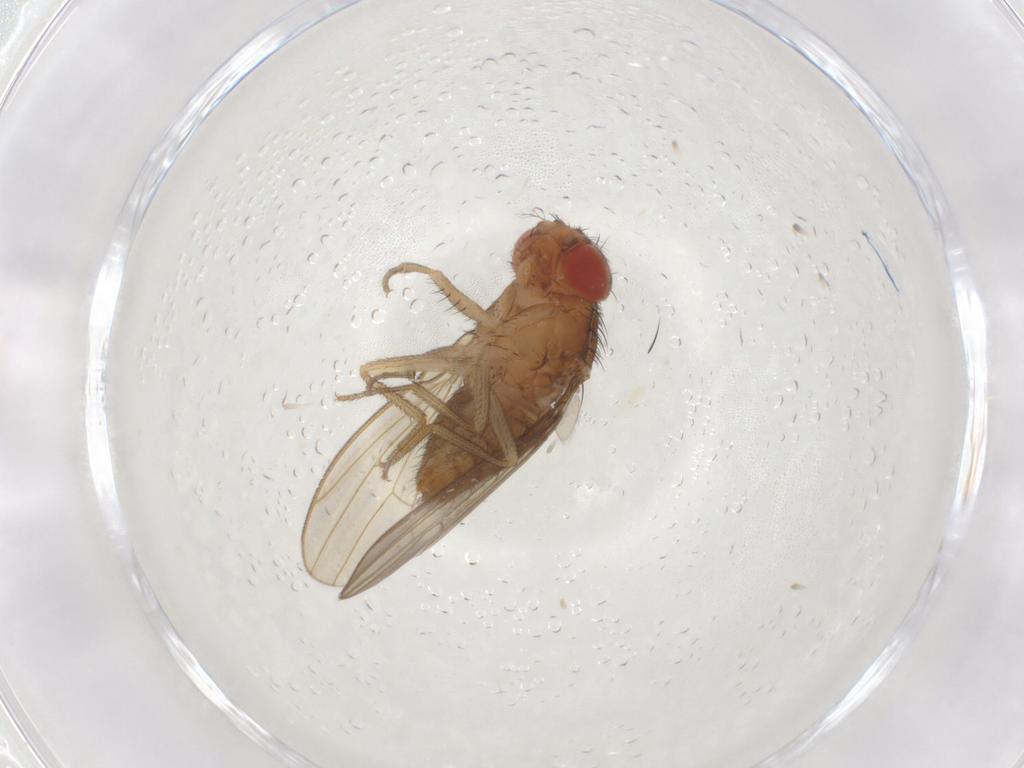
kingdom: Animalia
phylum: Arthropoda
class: Insecta
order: Diptera
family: Drosophilidae
